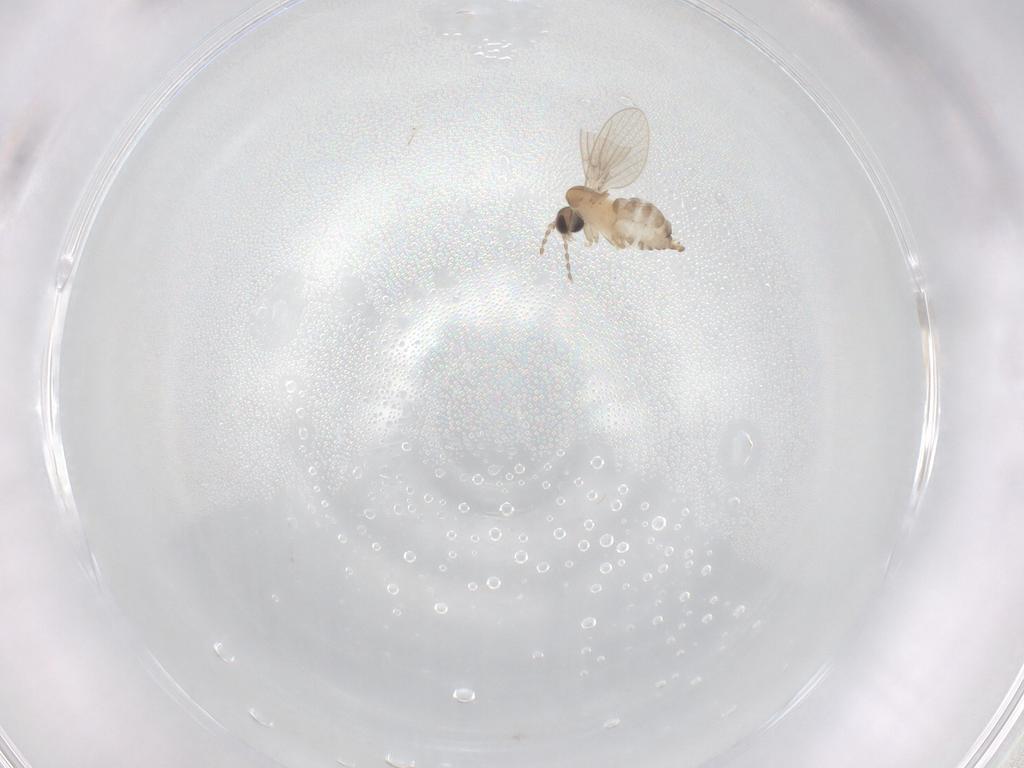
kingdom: Animalia
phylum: Arthropoda
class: Insecta
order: Diptera
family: Psychodidae
